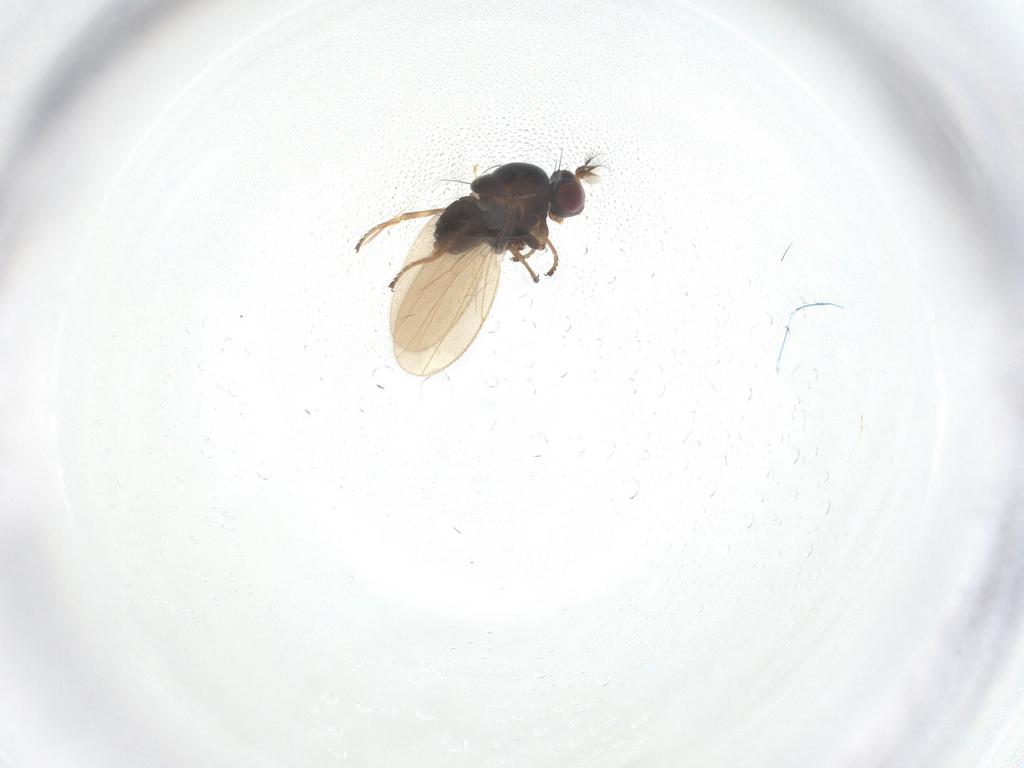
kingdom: Animalia
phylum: Arthropoda
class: Insecta
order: Diptera
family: Ephydridae
